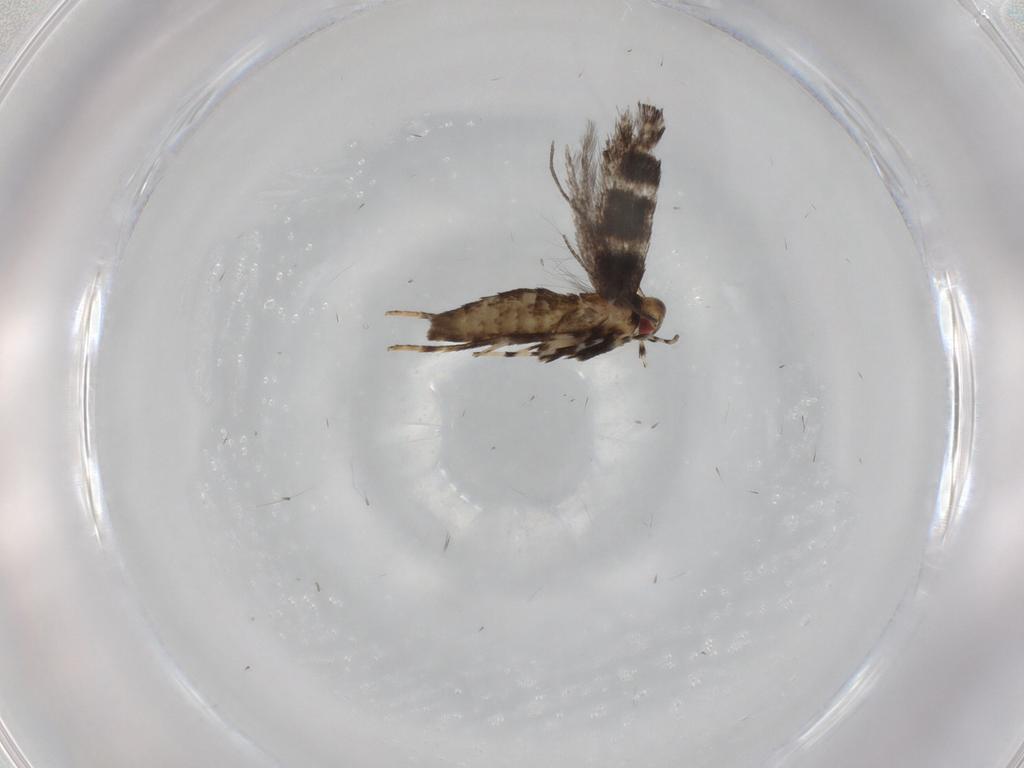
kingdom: Animalia
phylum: Arthropoda
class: Insecta
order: Lepidoptera
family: Gracillariidae
